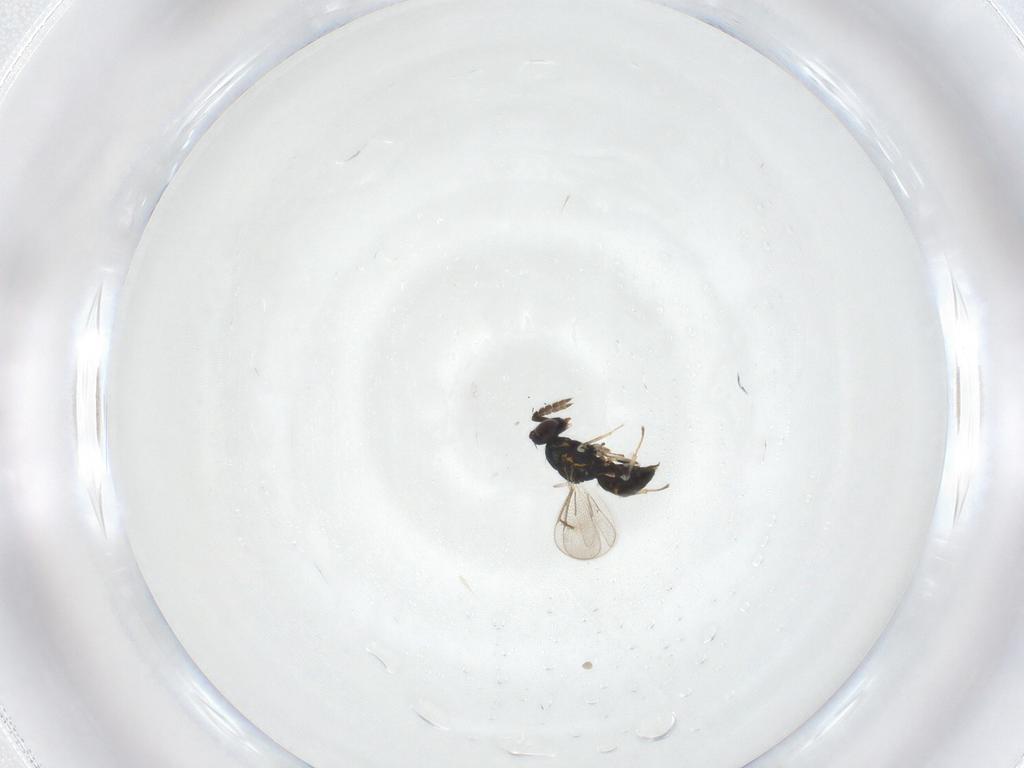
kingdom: Animalia
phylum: Arthropoda
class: Insecta
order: Hymenoptera
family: Eulophidae
